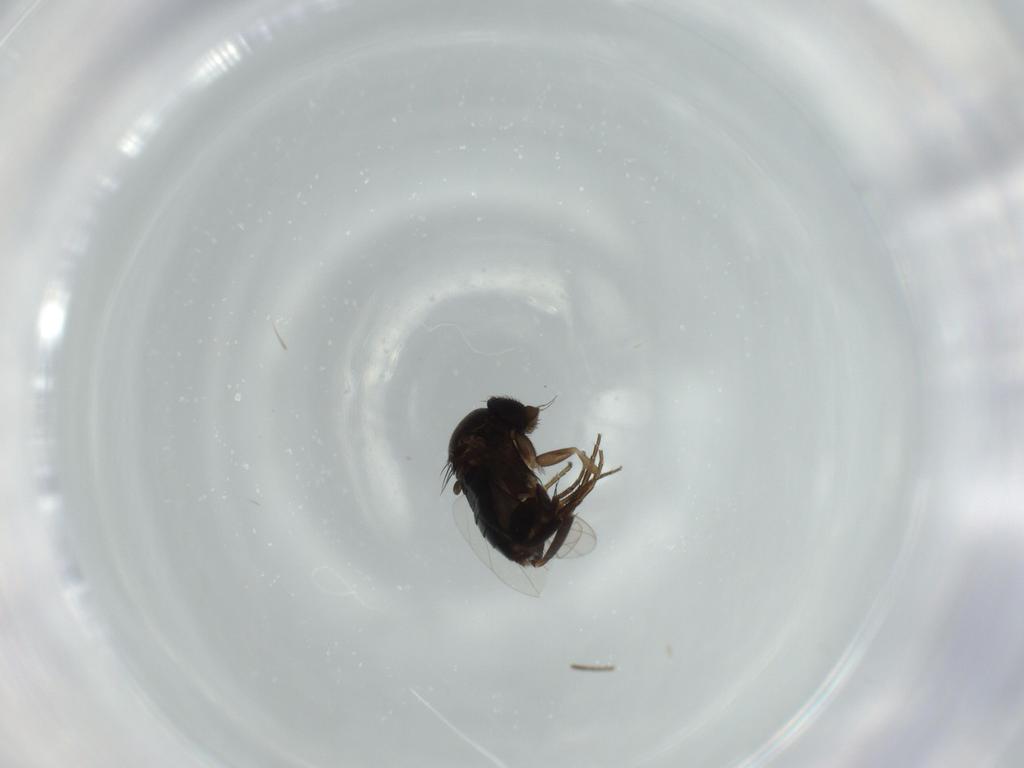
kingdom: Animalia
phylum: Arthropoda
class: Insecta
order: Diptera
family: Phoridae
